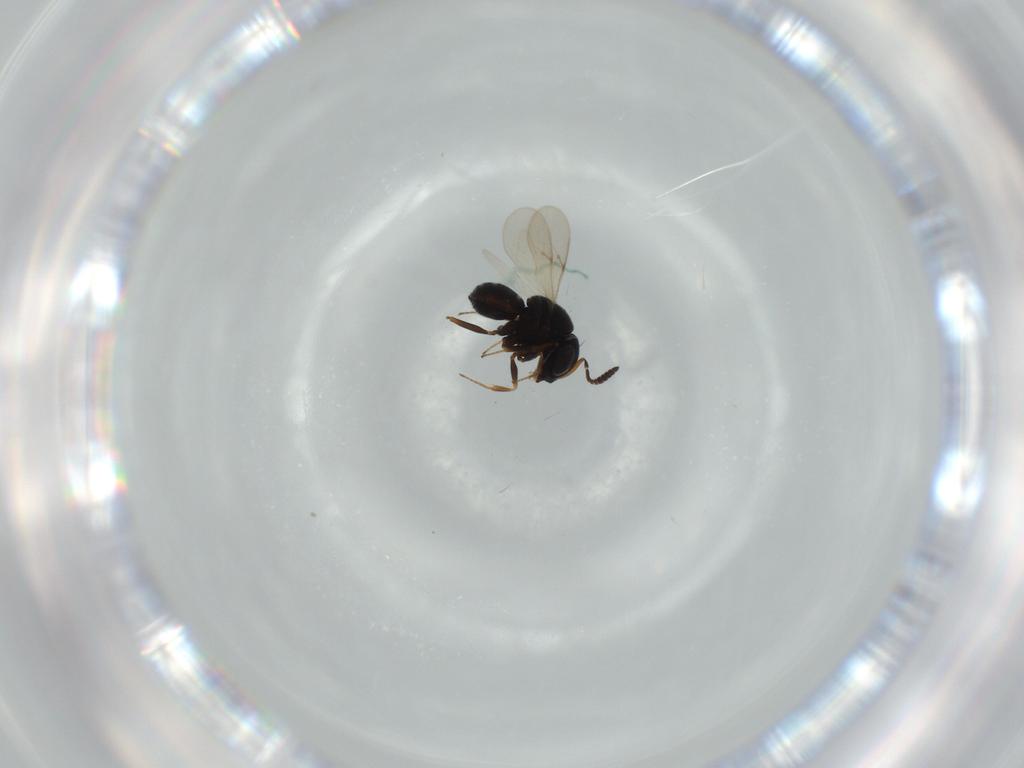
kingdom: Animalia
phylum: Arthropoda
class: Insecta
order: Hymenoptera
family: Scelionidae
